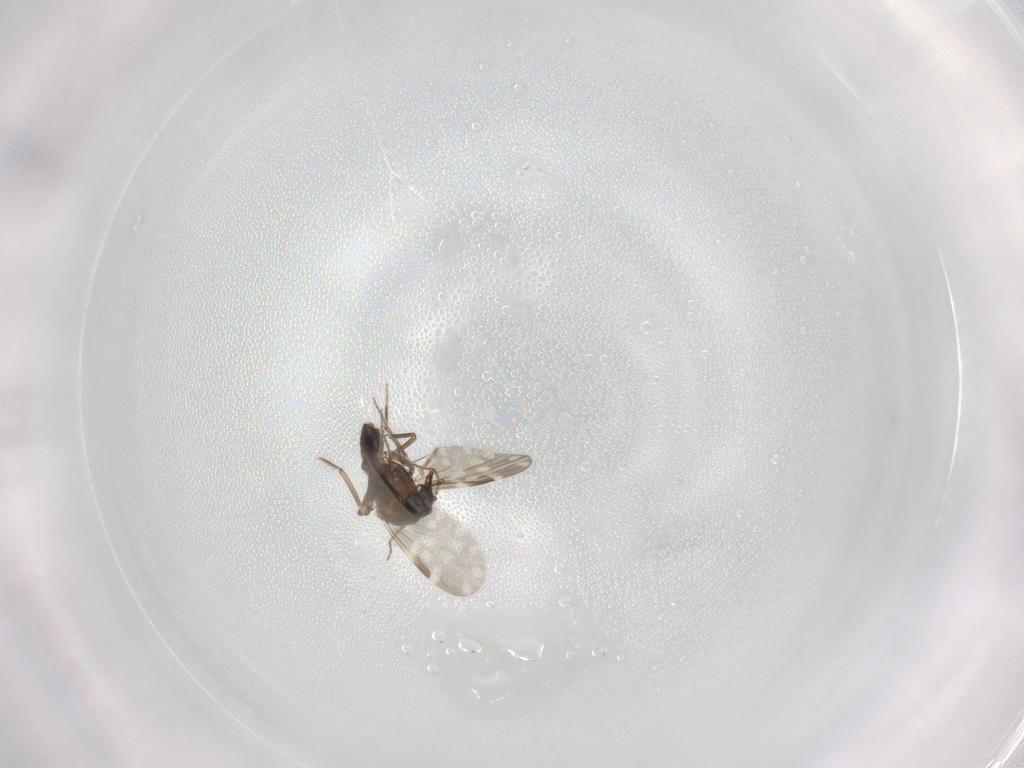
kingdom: Animalia
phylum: Arthropoda
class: Insecta
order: Diptera
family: Ceratopogonidae
